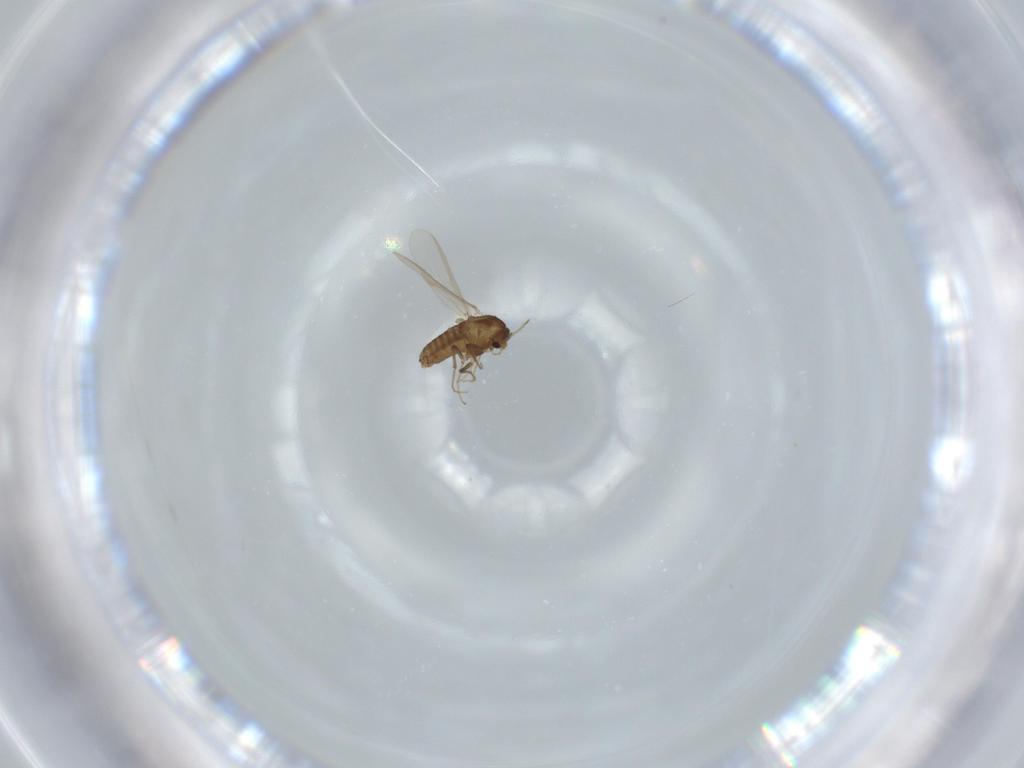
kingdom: Animalia
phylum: Arthropoda
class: Insecta
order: Diptera
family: Chironomidae
